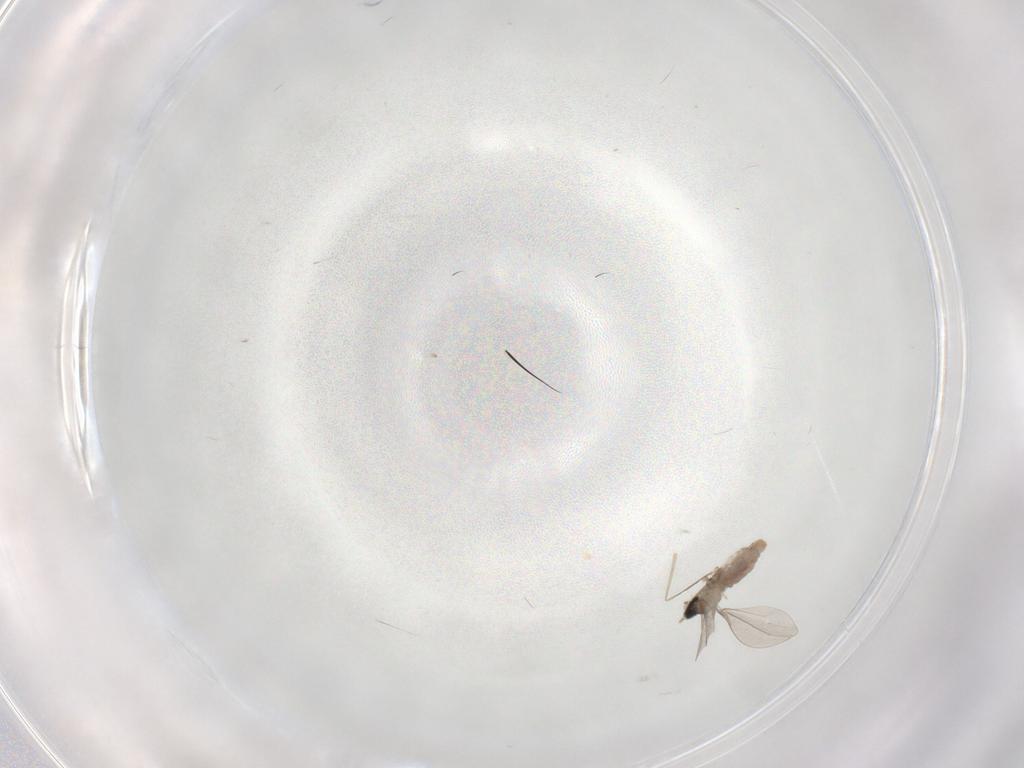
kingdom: Animalia
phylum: Arthropoda
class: Insecta
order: Diptera
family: Cecidomyiidae
